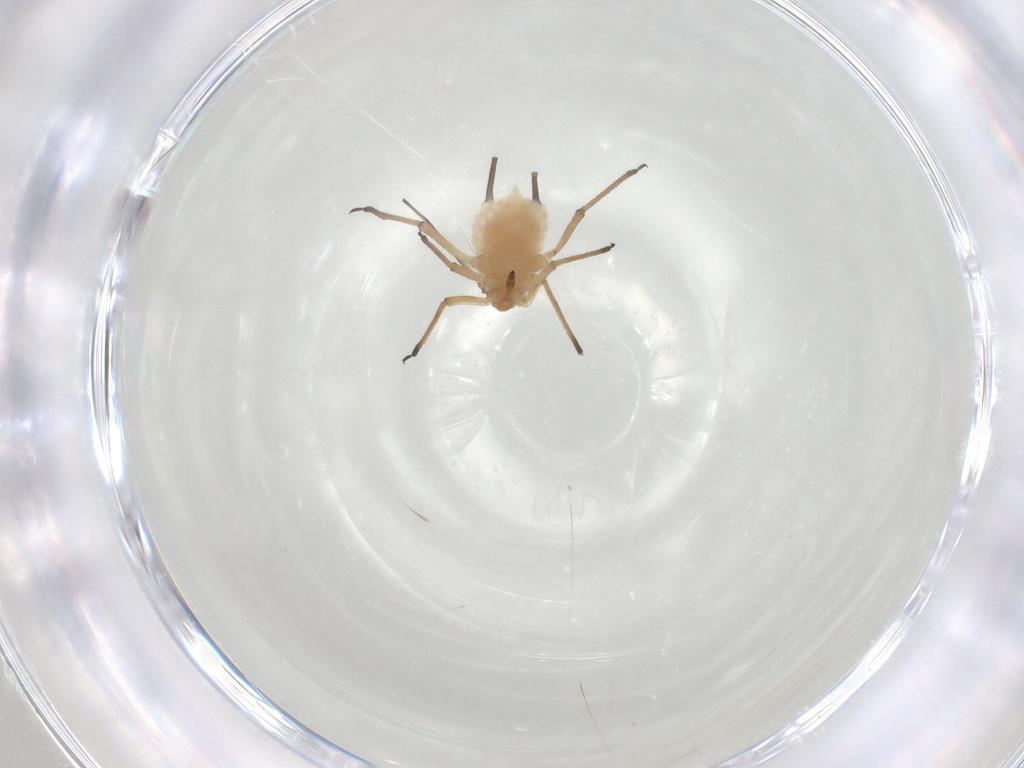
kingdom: Animalia
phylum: Arthropoda
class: Insecta
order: Hemiptera
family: Aphididae
